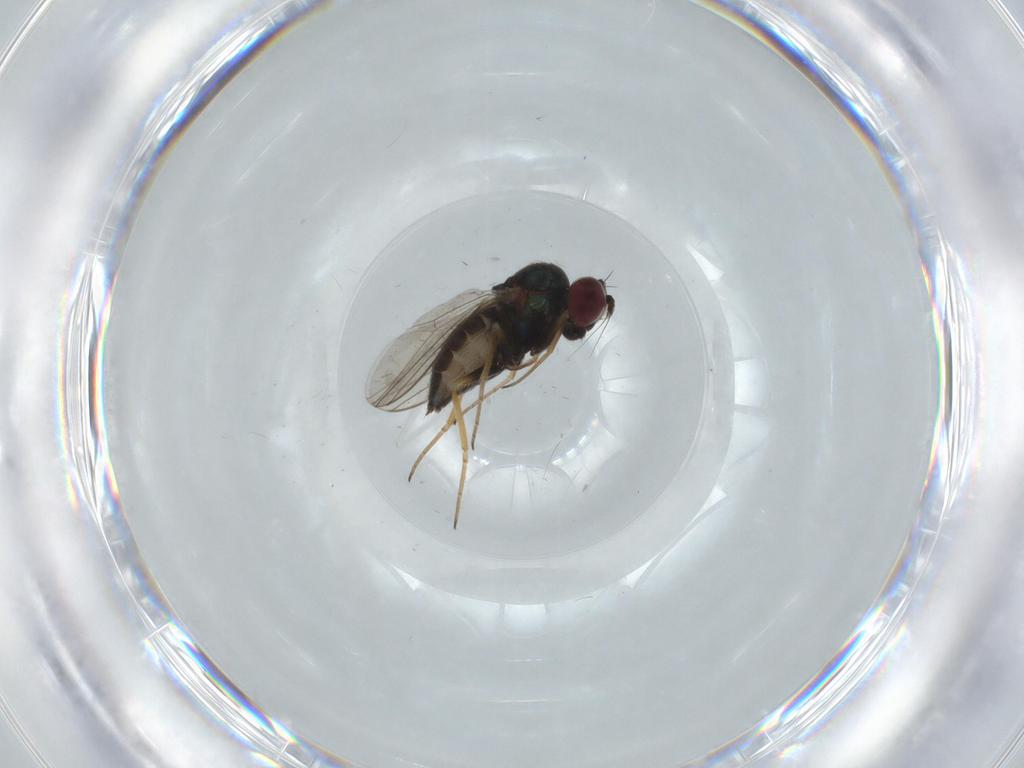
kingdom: Animalia
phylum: Arthropoda
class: Insecta
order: Diptera
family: Dolichopodidae
